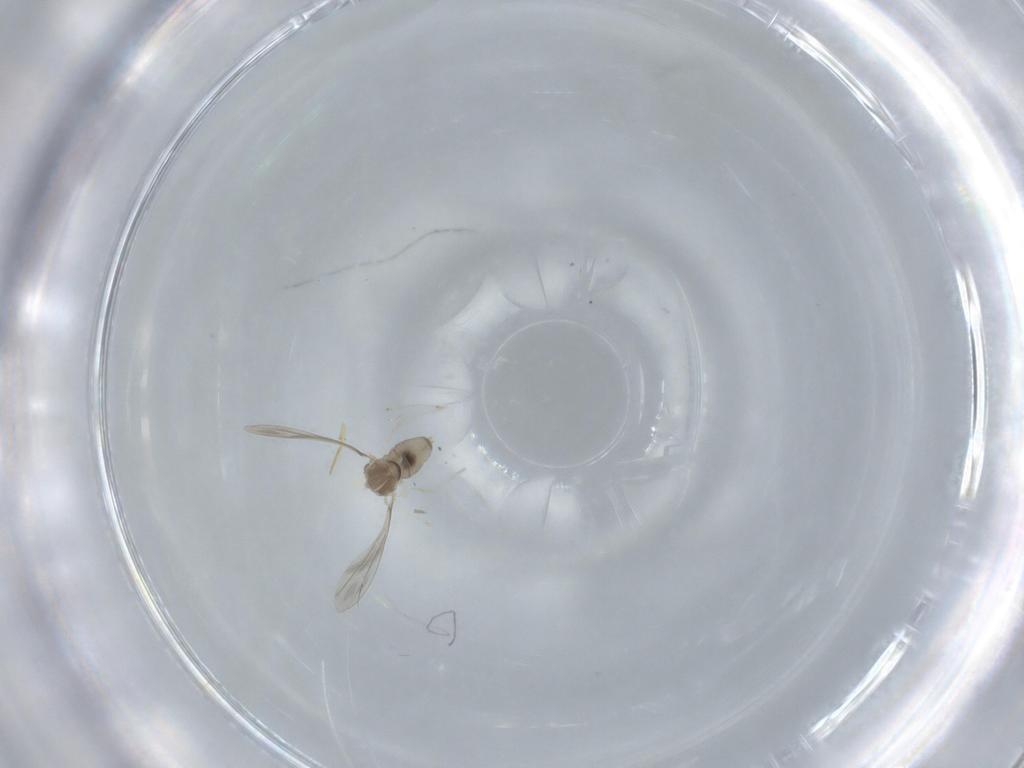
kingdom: Animalia
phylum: Arthropoda
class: Insecta
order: Diptera
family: Cecidomyiidae
